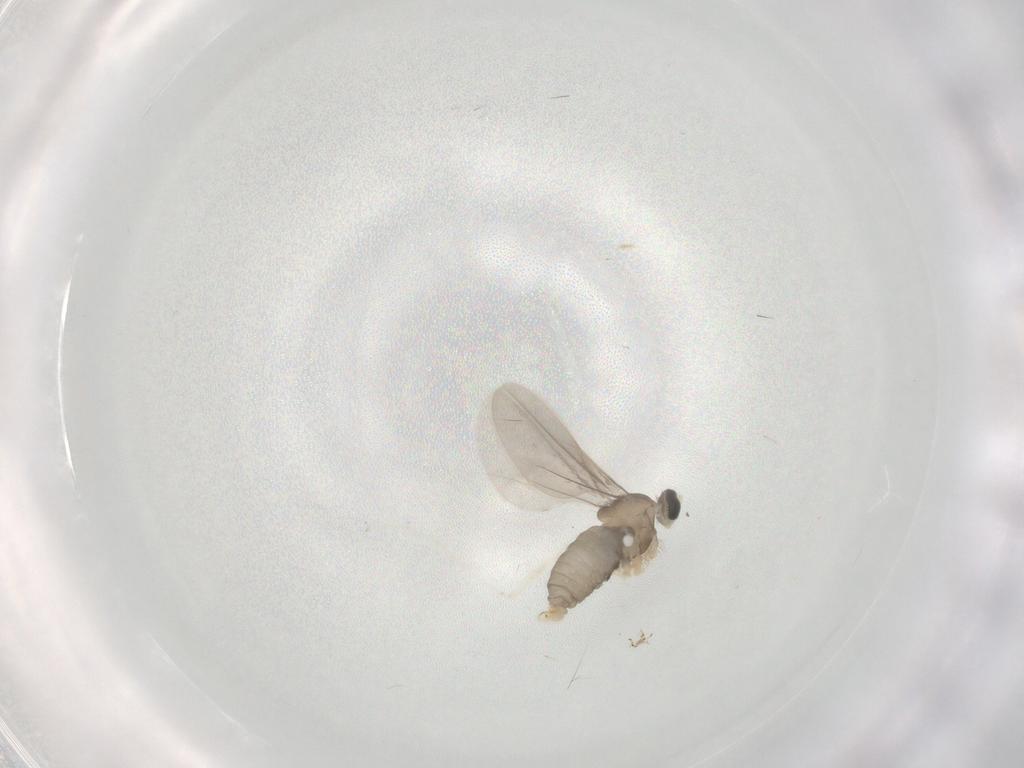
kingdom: Animalia
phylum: Arthropoda
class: Insecta
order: Diptera
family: Cecidomyiidae
